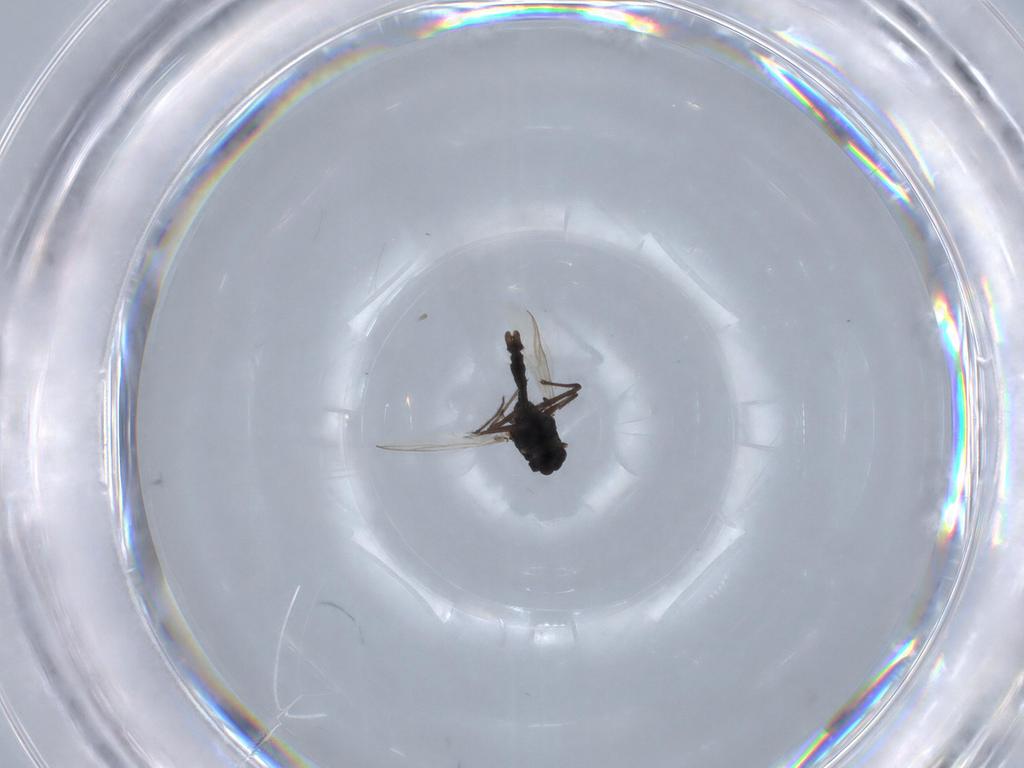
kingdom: Animalia
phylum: Arthropoda
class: Insecta
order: Diptera
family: Chironomidae
